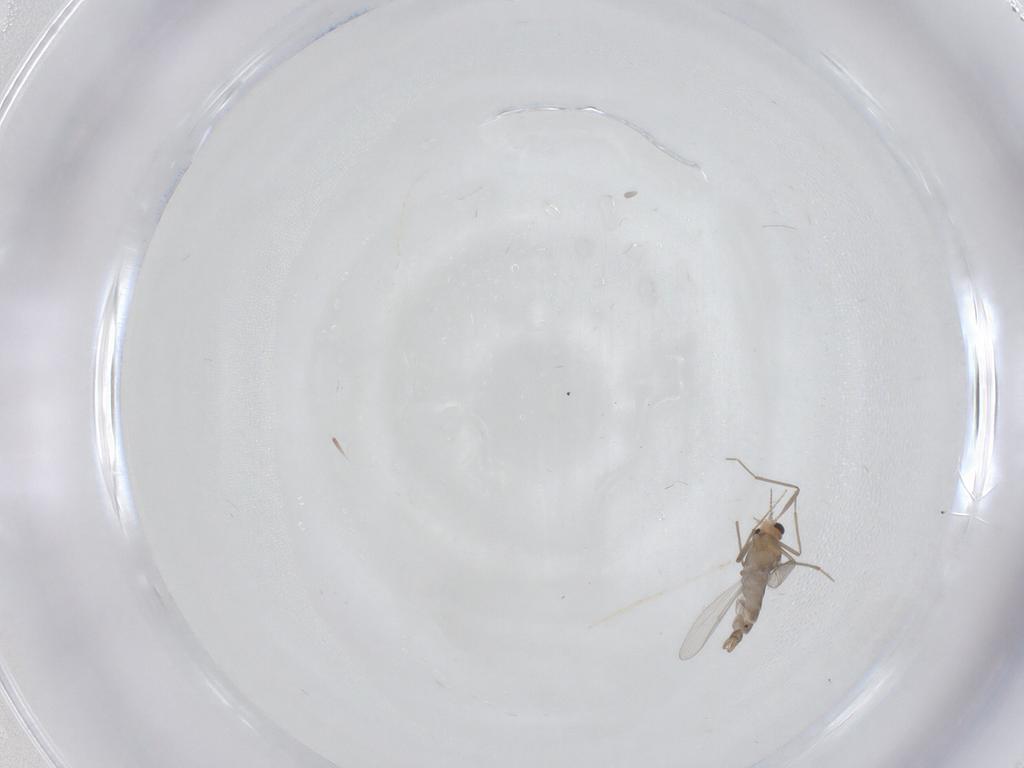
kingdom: Animalia
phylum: Arthropoda
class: Insecta
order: Diptera
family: Chironomidae
